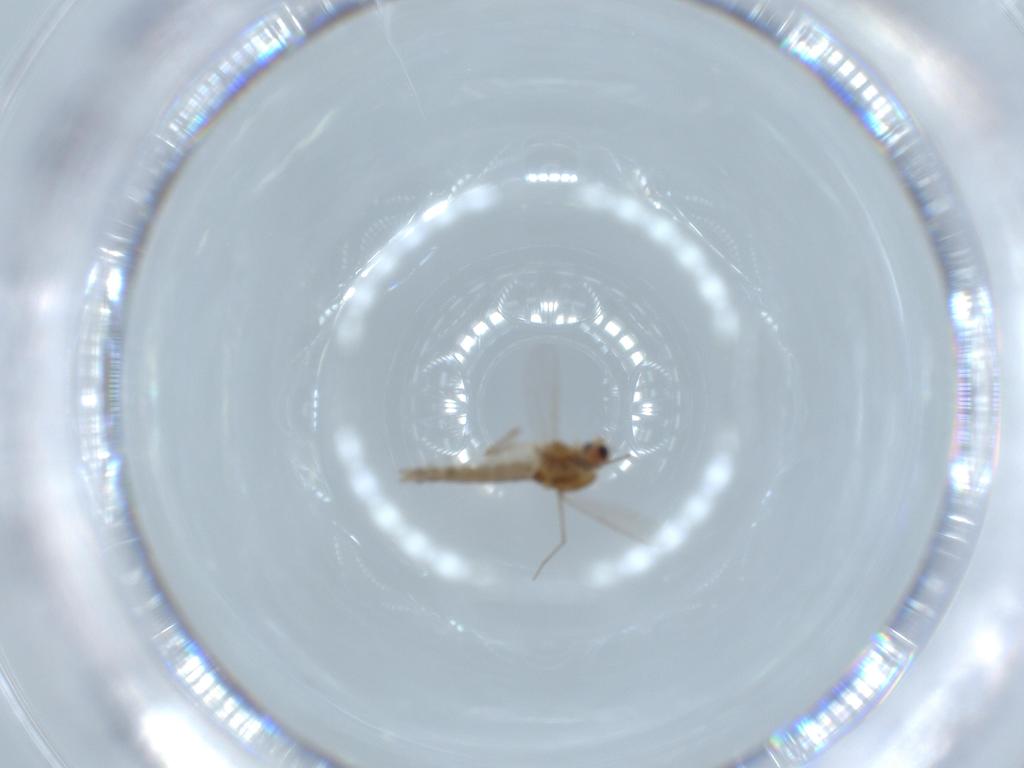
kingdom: Animalia
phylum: Arthropoda
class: Insecta
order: Diptera
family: Chironomidae
